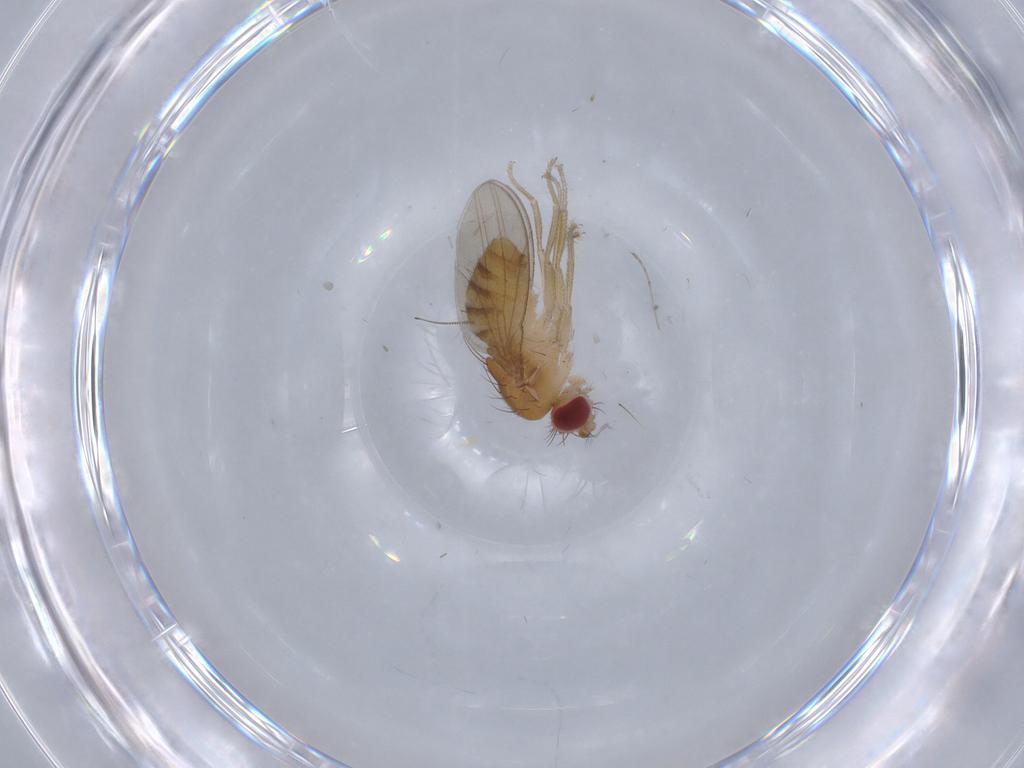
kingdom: Animalia
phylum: Arthropoda
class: Insecta
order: Diptera
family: Drosophilidae
